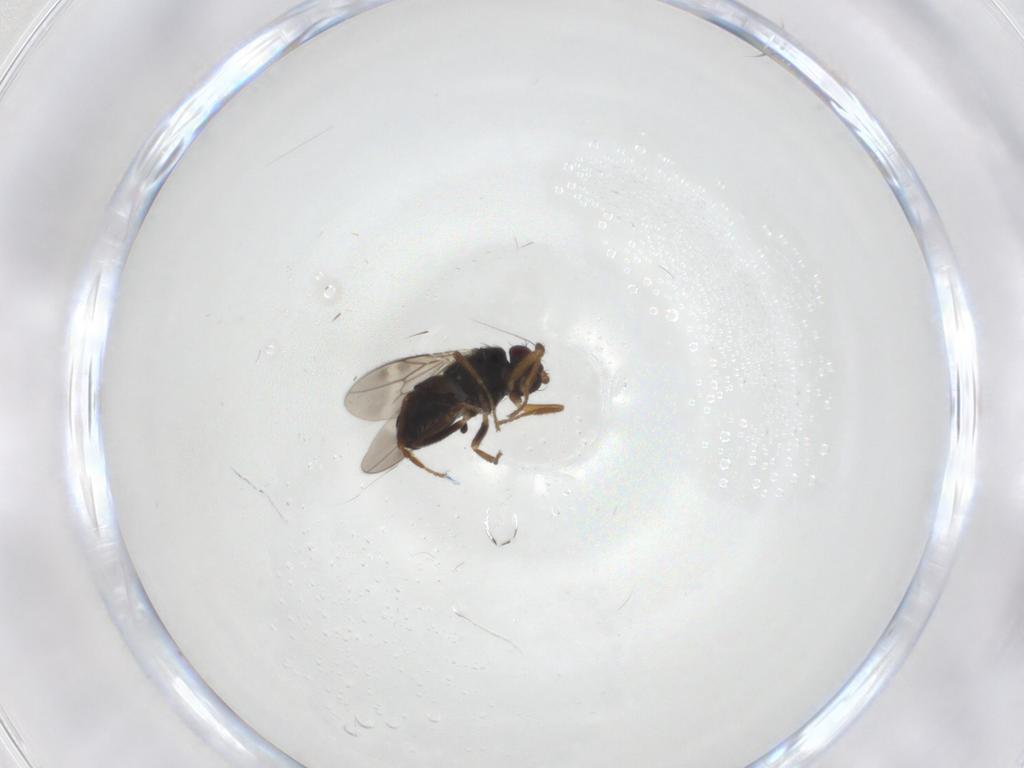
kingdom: Animalia
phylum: Arthropoda
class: Insecta
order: Diptera
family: Sphaeroceridae
